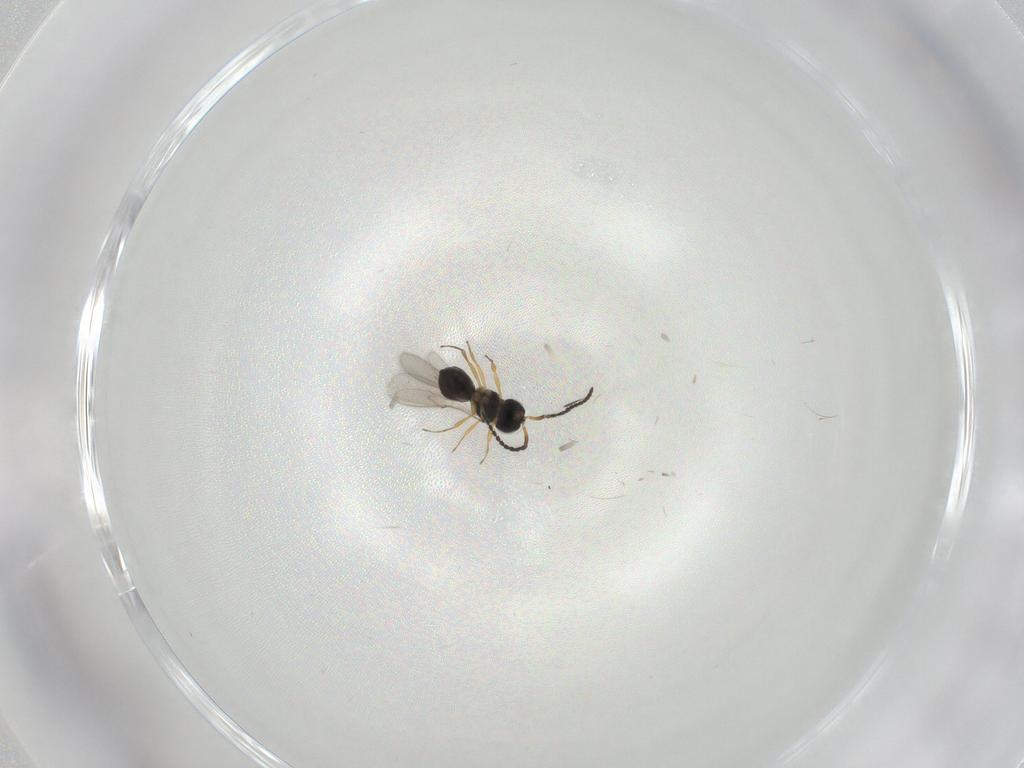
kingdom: Animalia
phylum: Arthropoda
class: Insecta
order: Hymenoptera
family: Scelionidae
